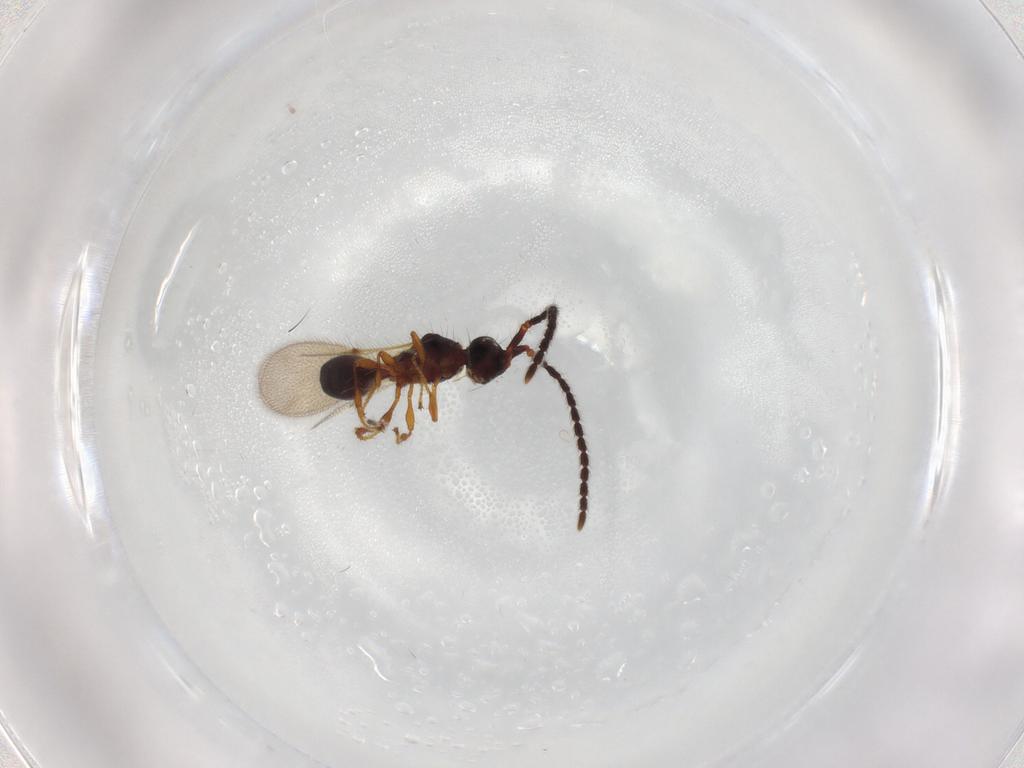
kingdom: Animalia
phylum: Arthropoda
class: Insecta
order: Hymenoptera
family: Diapriidae
